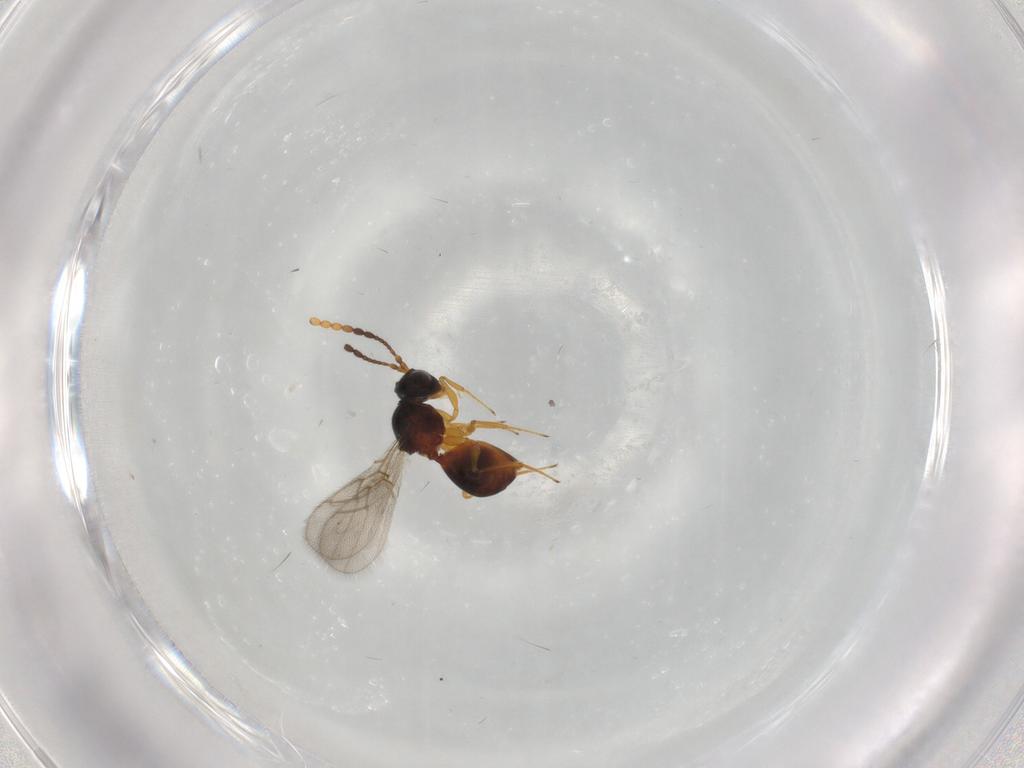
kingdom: Animalia
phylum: Arthropoda
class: Insecta
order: Hymenoptera
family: Figitidae
